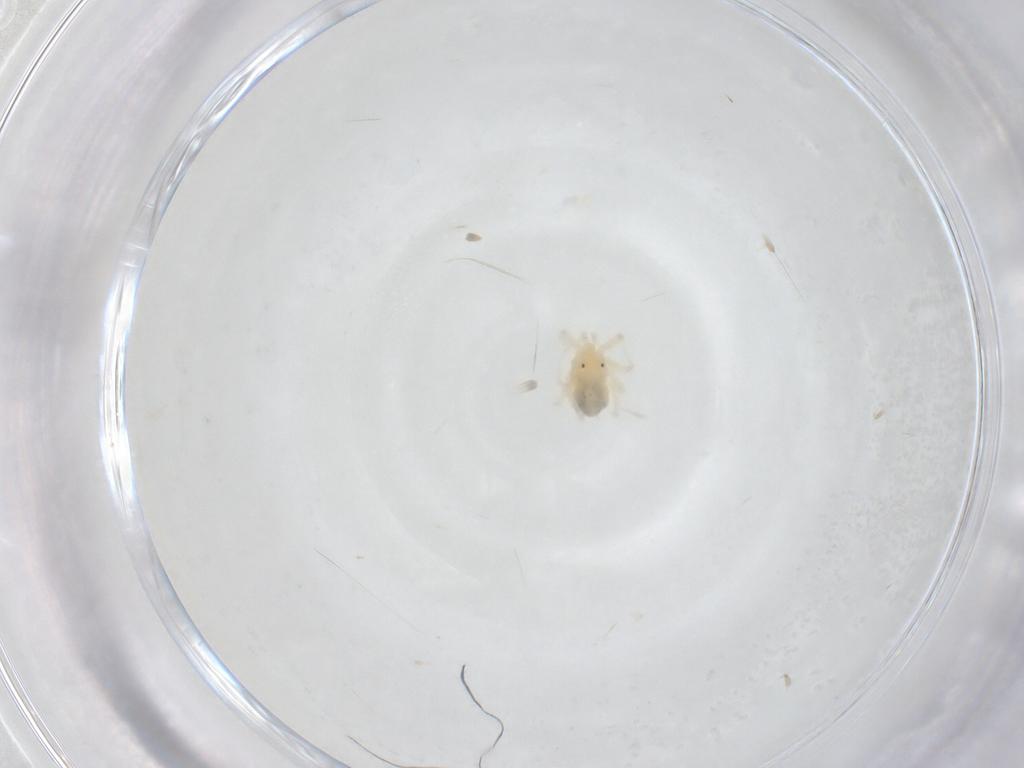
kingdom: Animalia
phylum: Arthropoda
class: Arachnida
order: Trombidiformes
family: Anystidae
